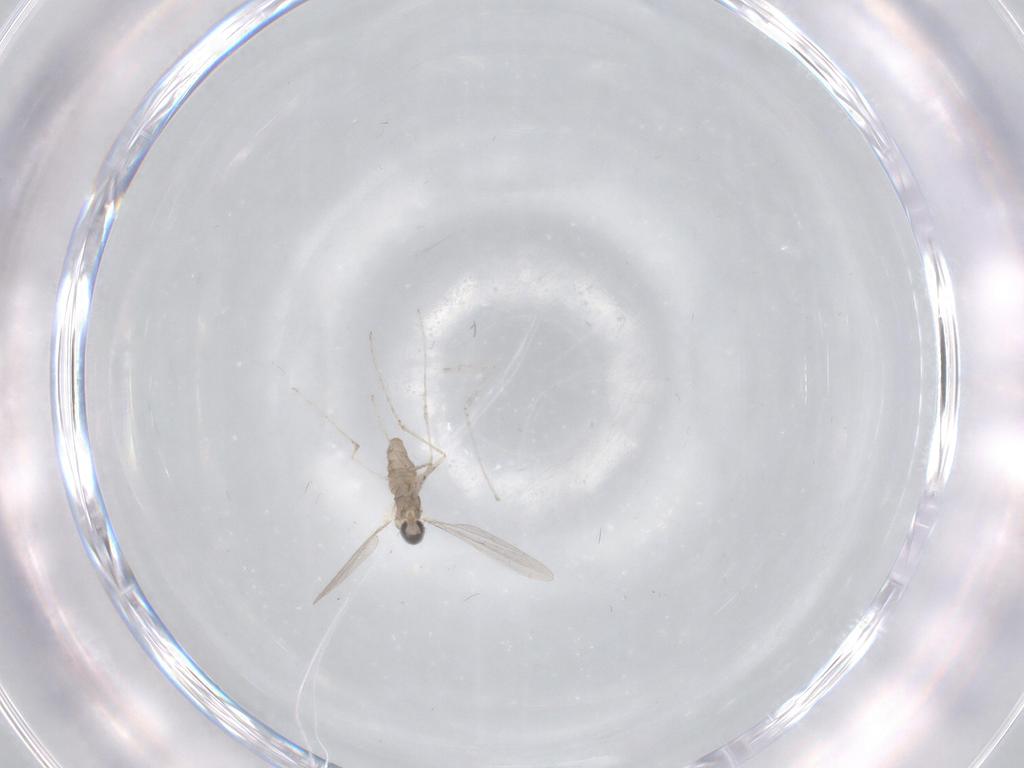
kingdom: Animalia
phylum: Arthropoda
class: Insecta
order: Diptera
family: Cecidomyiidae
